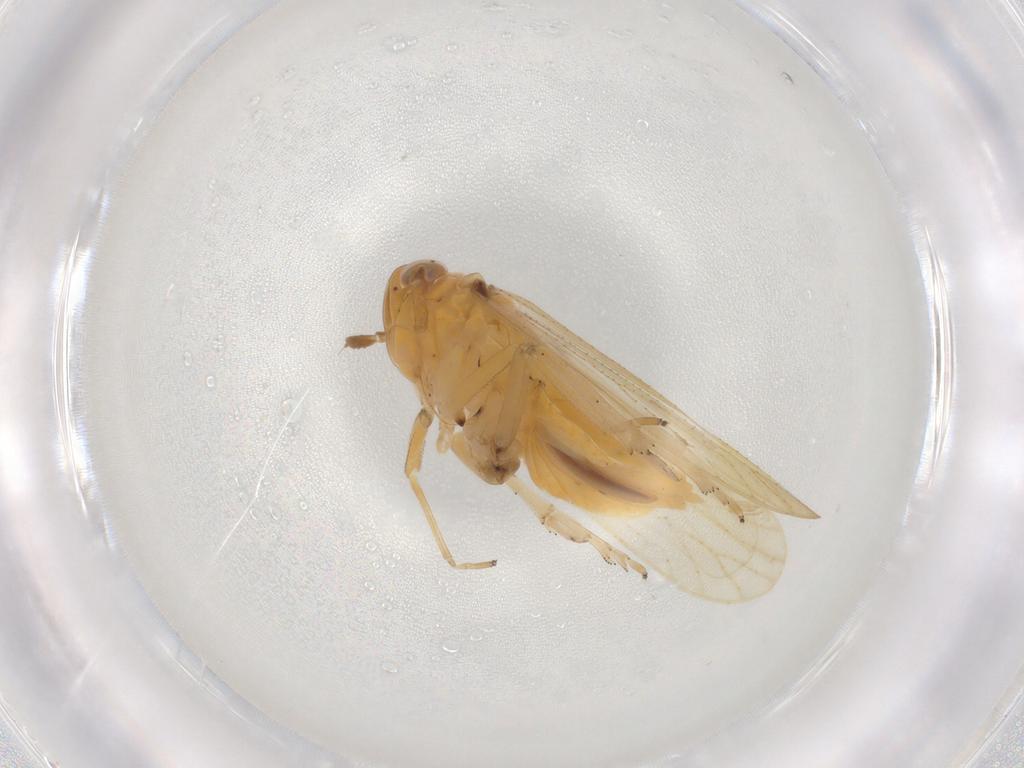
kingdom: Animalia
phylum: Arthropoda
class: Insecta
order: Hemiptera
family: Delphacidae
